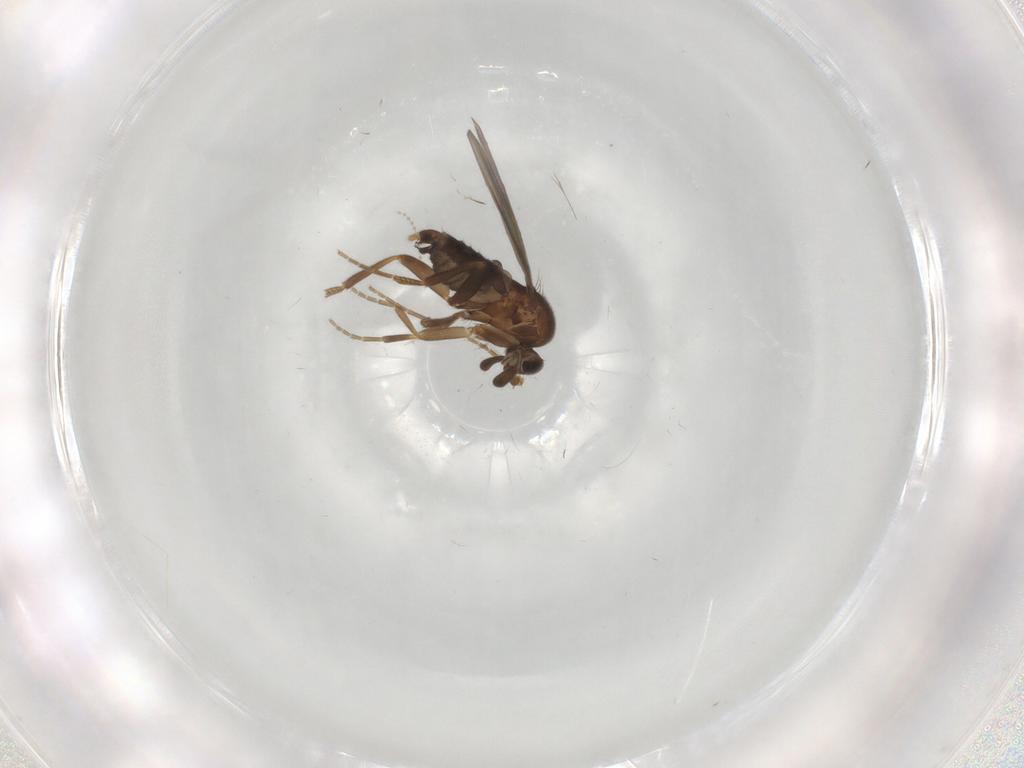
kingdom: Animalia
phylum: Arthropoda
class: Insecta
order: Diptera
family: Phoridae
